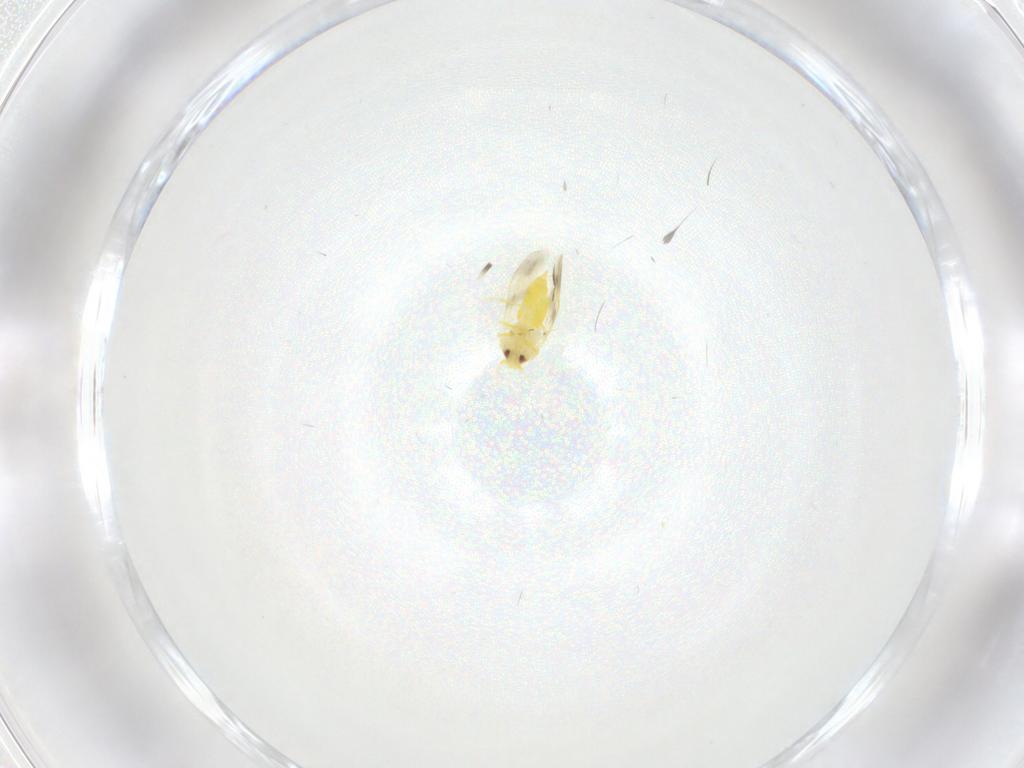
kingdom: Animalia
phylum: Arthropoda
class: Insecta
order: Hemiptera
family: Aleyrodidae
